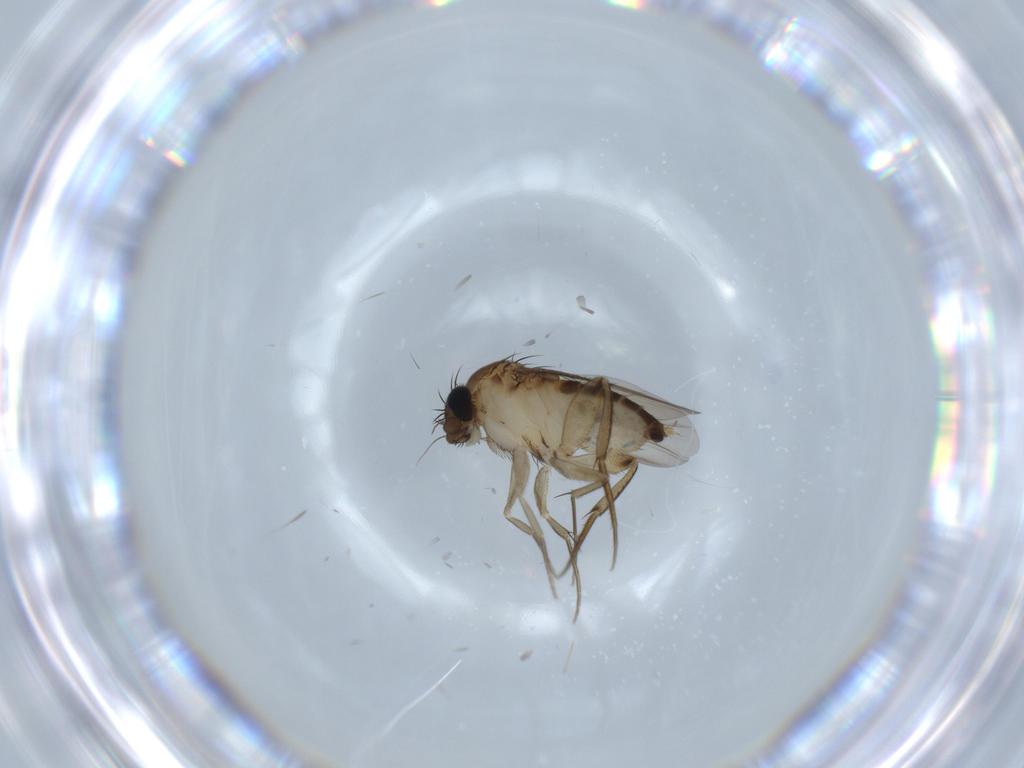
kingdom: Animalia
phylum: Arthropoda
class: Insecta
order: Diptera
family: Phoridae
